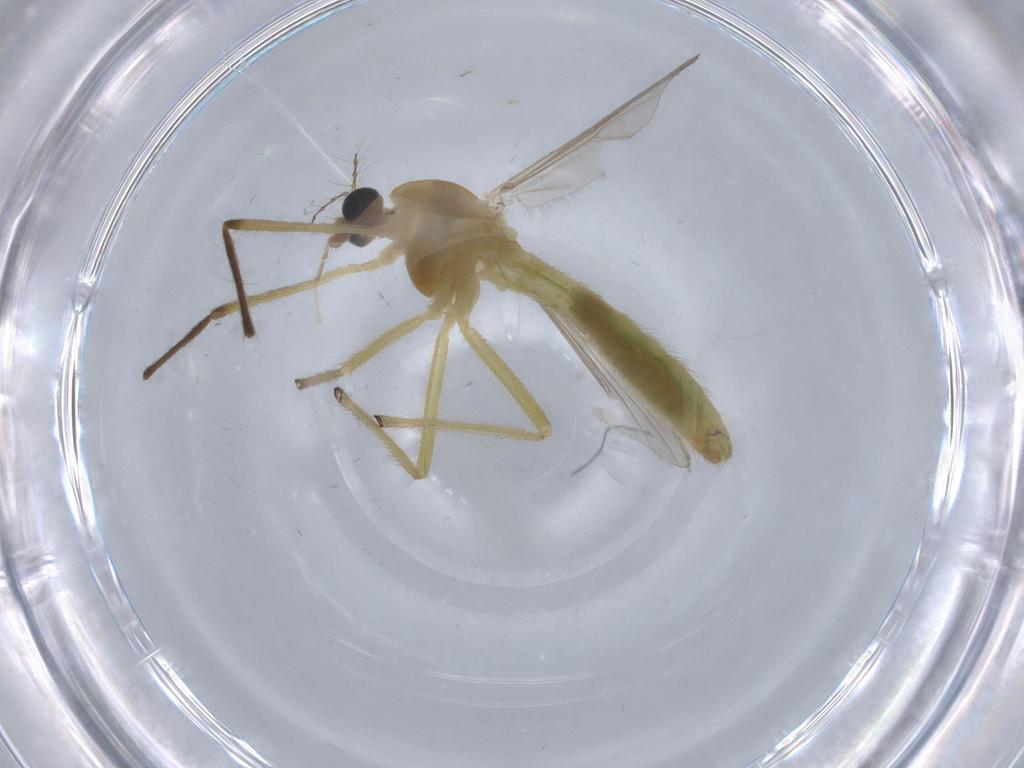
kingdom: Animalia
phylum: Arthropoda
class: Insecta
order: Diptera
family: Cecidomyiidae
